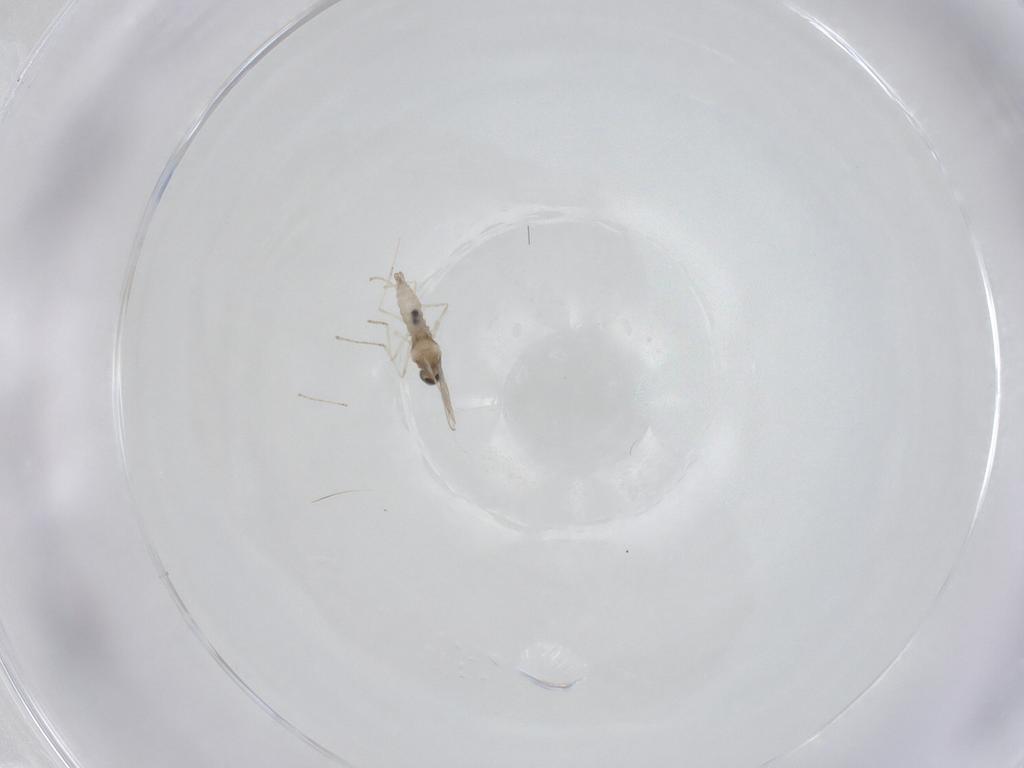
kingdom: Animalia
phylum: Arthropoda
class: Insecta
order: Diptera
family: Cecidomyiidae
